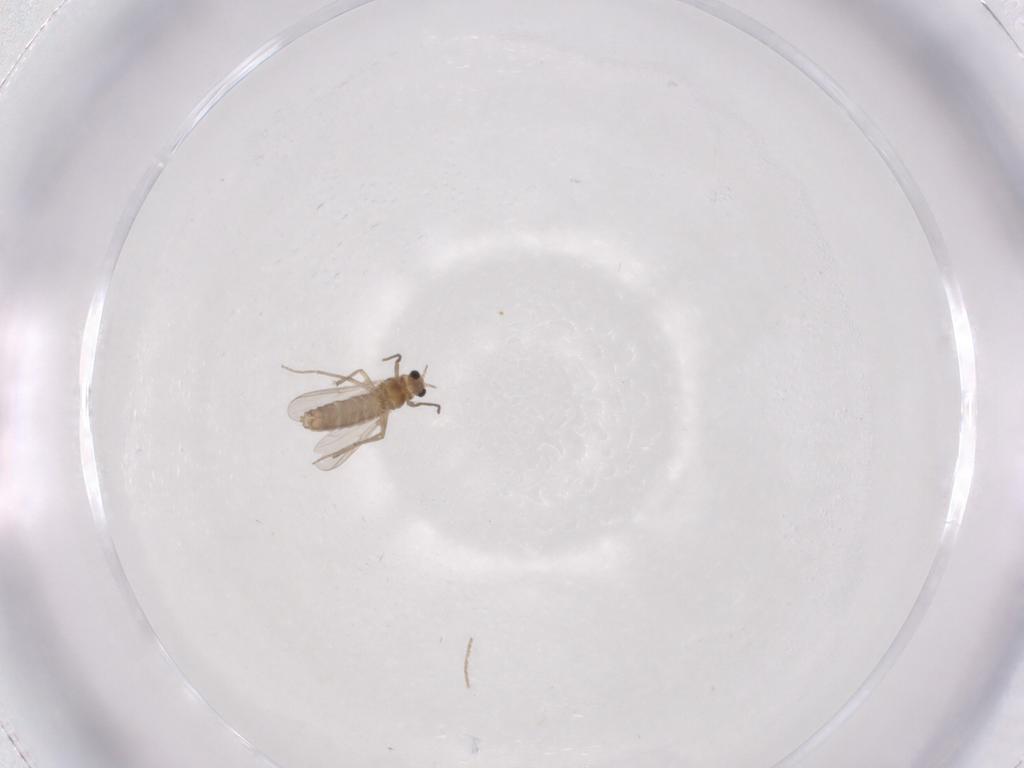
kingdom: Animalia
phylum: Arthropoda
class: Insecta
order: Diptera
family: Chironomidae
